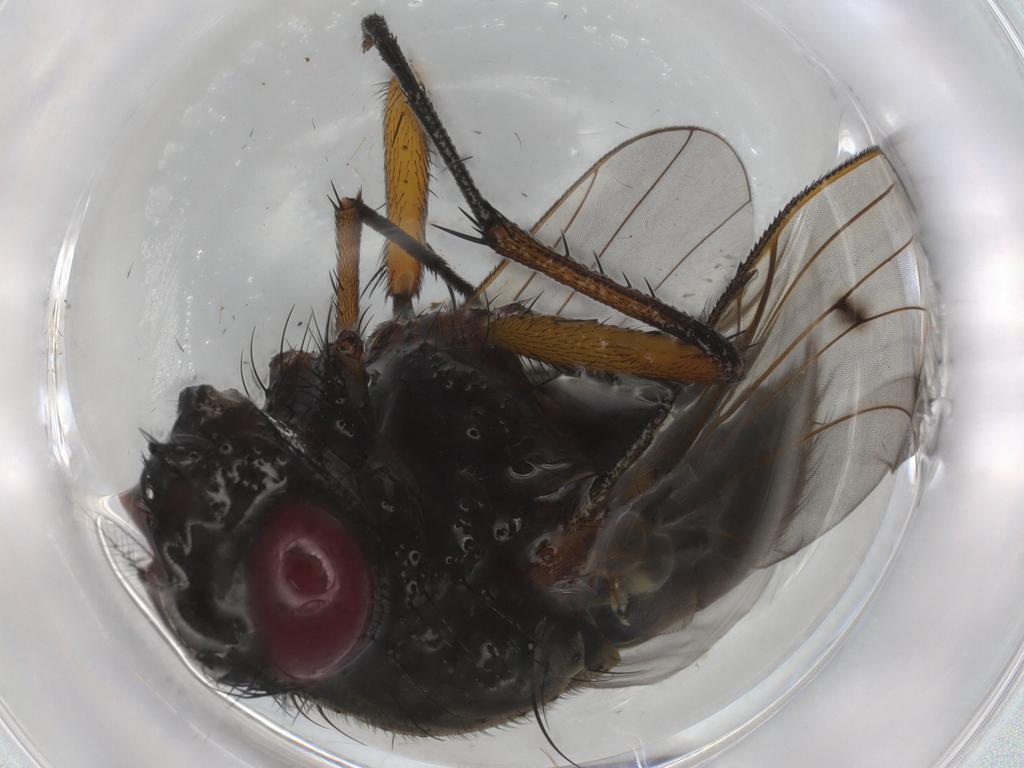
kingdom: Animalia
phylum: Arthropoda
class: Insecta
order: Diptera
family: Muscidae
